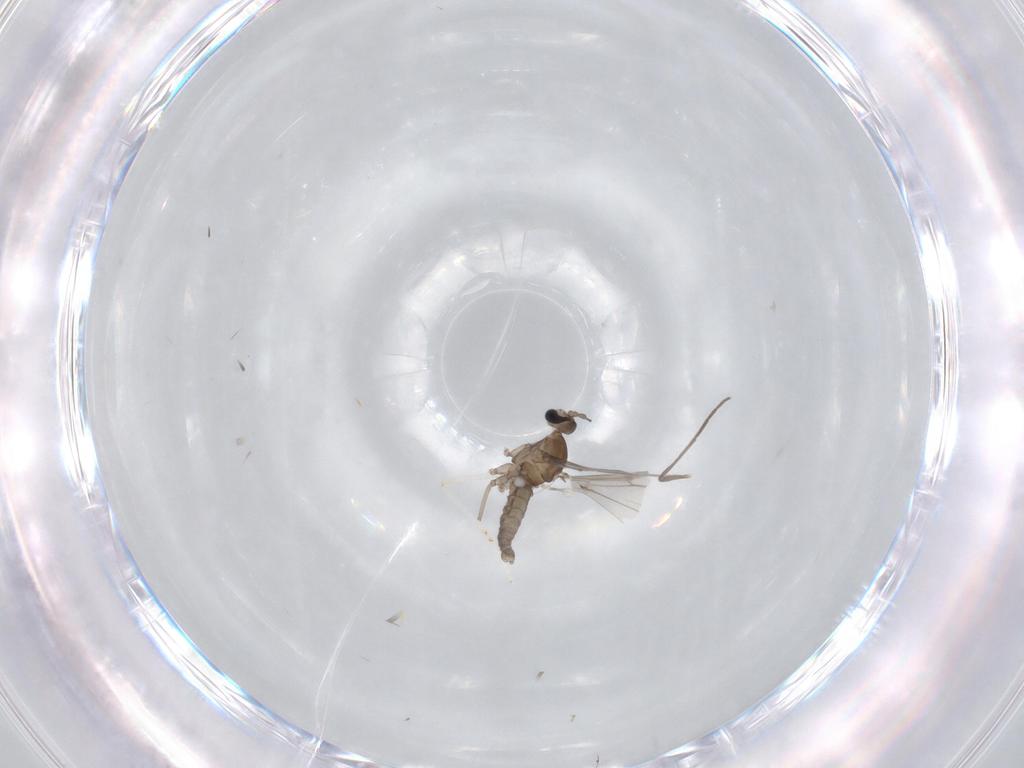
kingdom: Animalia
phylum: Arthropoda
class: Insecta
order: Diptera
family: Cecidomyiidae
